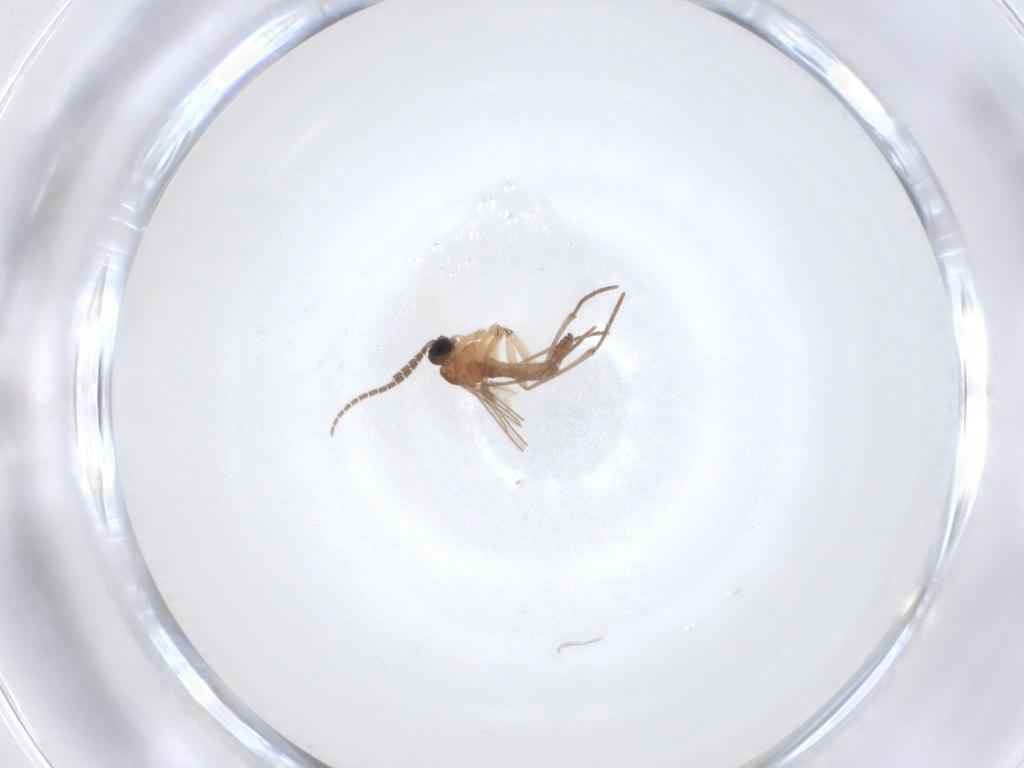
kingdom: Animalia
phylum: Arthropoda
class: Insecta
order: Diptera
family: Sciaridae
